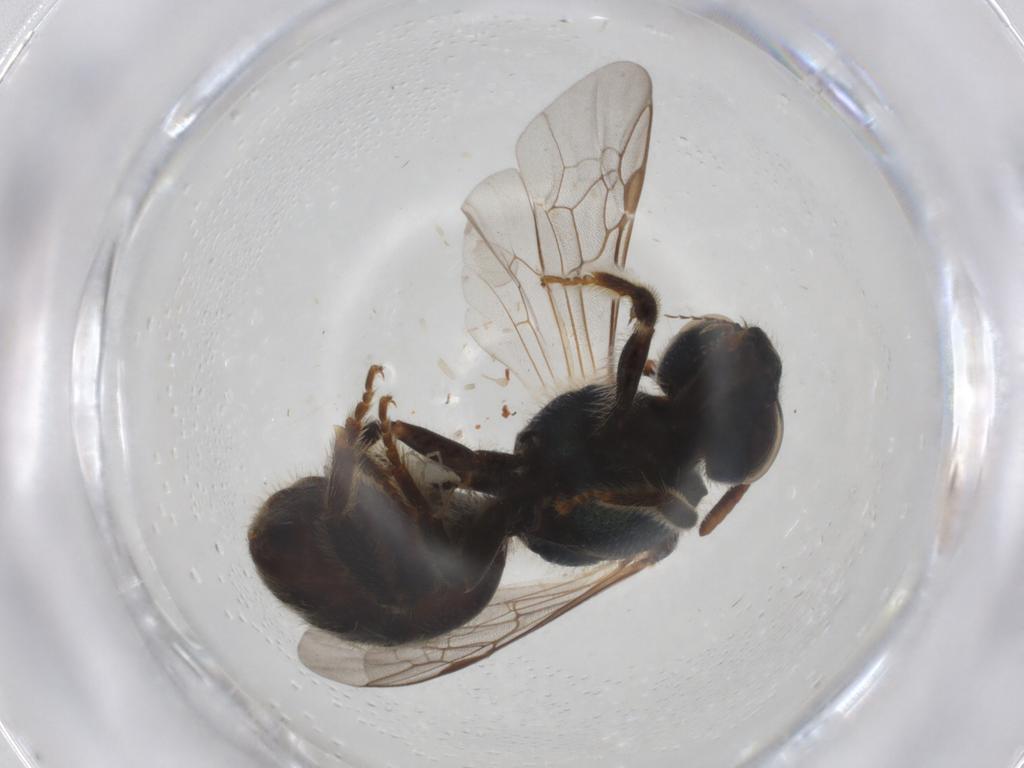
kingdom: Animalia
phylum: Arthropoda
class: Insecta
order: Hymenoptera
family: Halictidae
